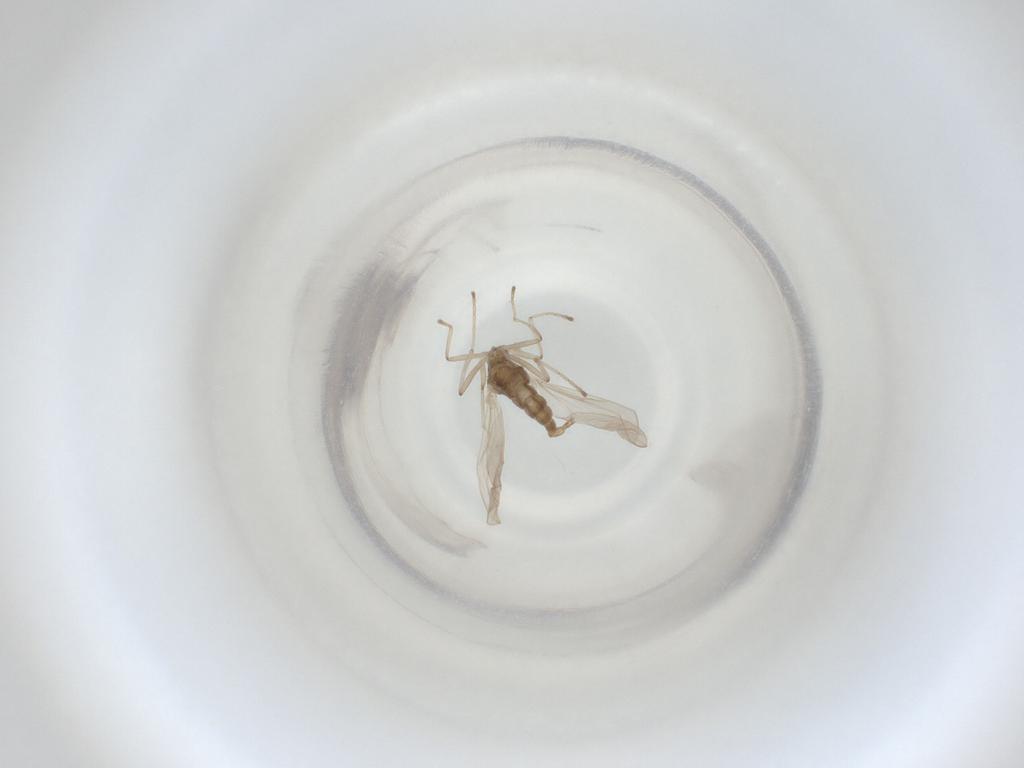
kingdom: Animalia
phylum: Arthropoda
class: Insecta
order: Diptera
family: Cecidomyiidae
